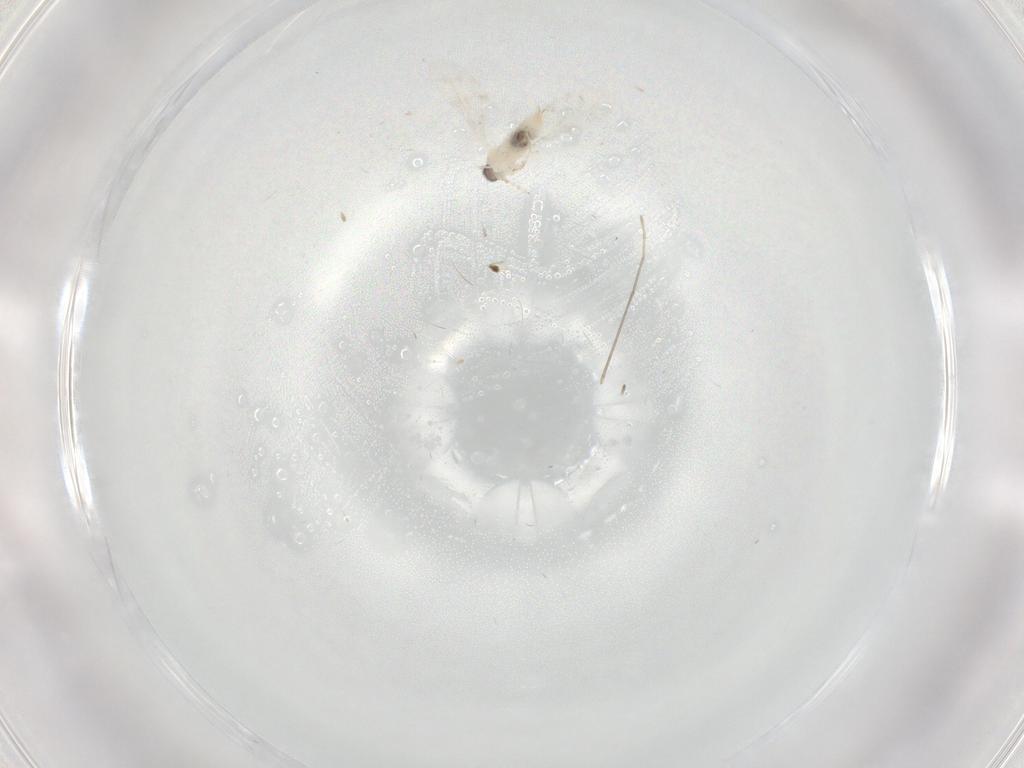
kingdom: Animalia
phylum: Arthropoda
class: Insecta
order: Diptera
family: Cecidomyiidae
